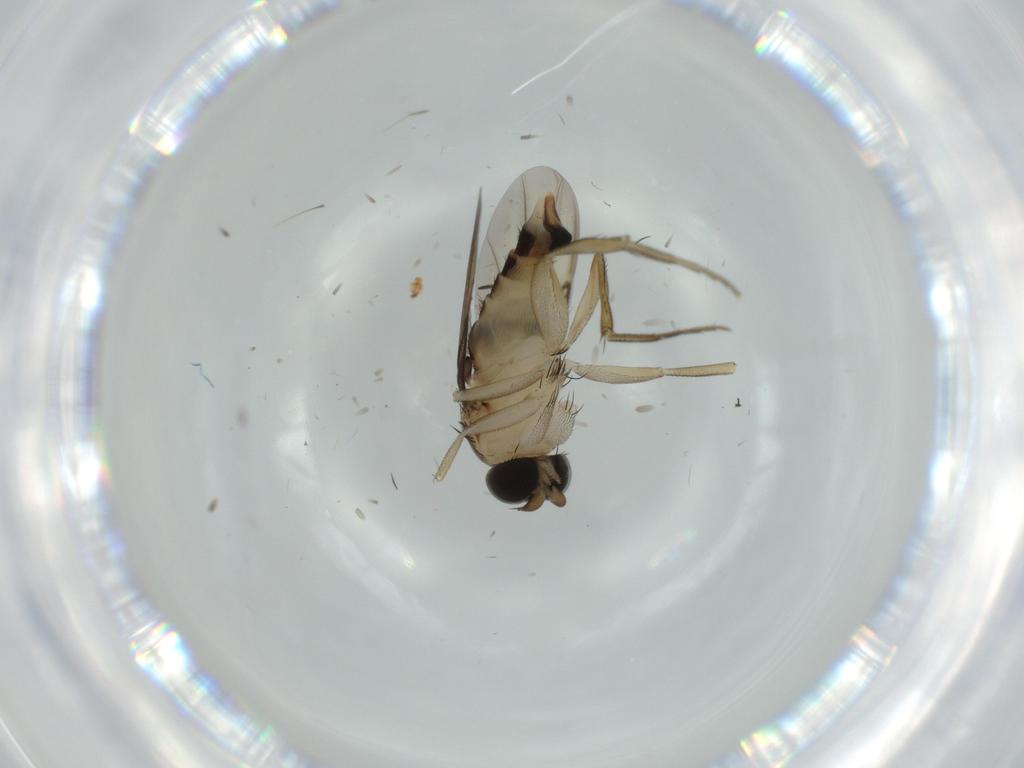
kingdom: Animalia
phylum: Arthropoda
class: Insecta
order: Diptera
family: Phoridae
